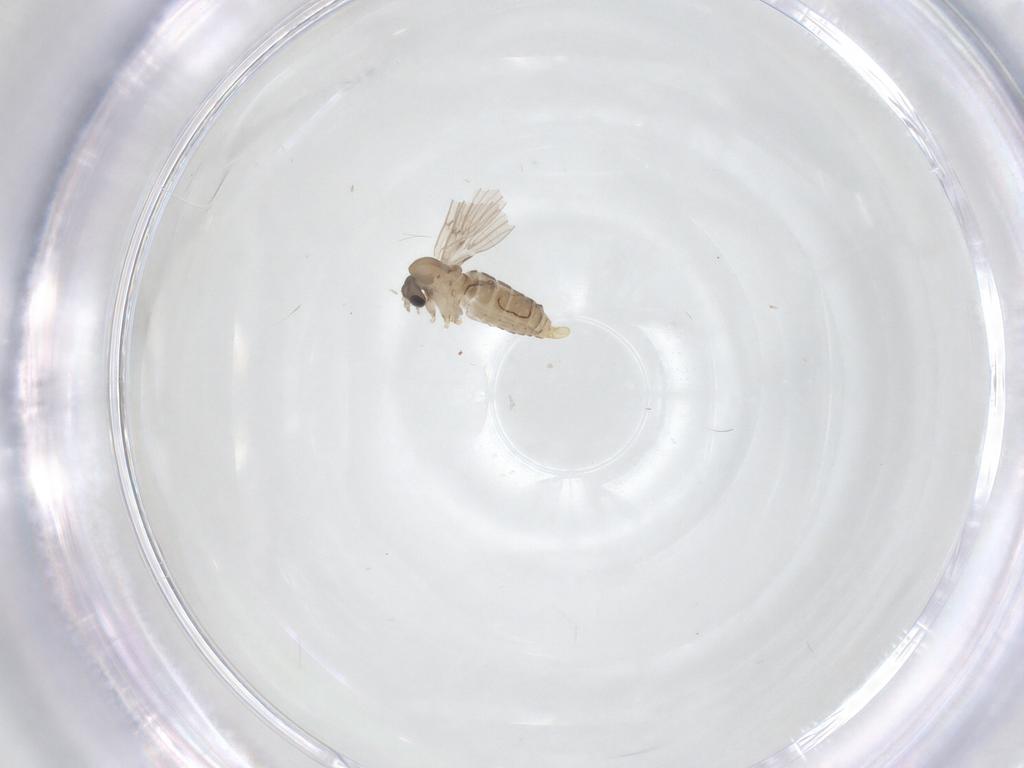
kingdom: Animalia
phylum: Arthropoda
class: Insecta
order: Diptera
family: Psychodidae
